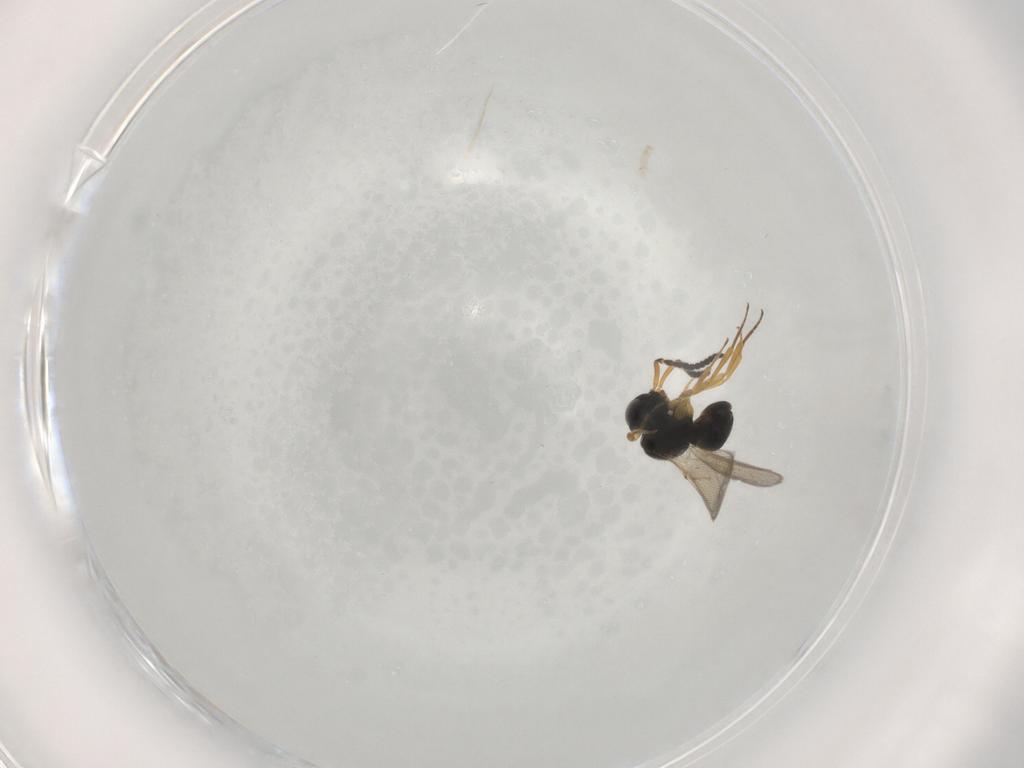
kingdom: Animalia
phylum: Arthropoda
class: Insecta
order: Hymenoptera
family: Scelionidae
